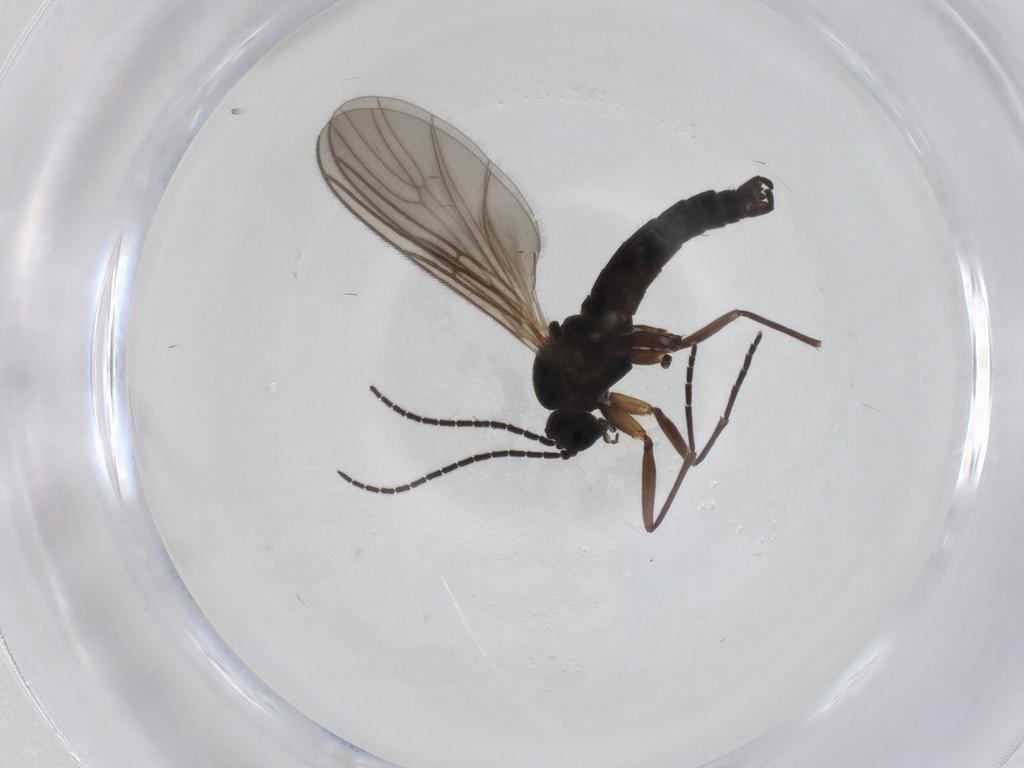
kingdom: Animalia
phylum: Arthropoda
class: Insecta
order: Diptera
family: Sciaridae
